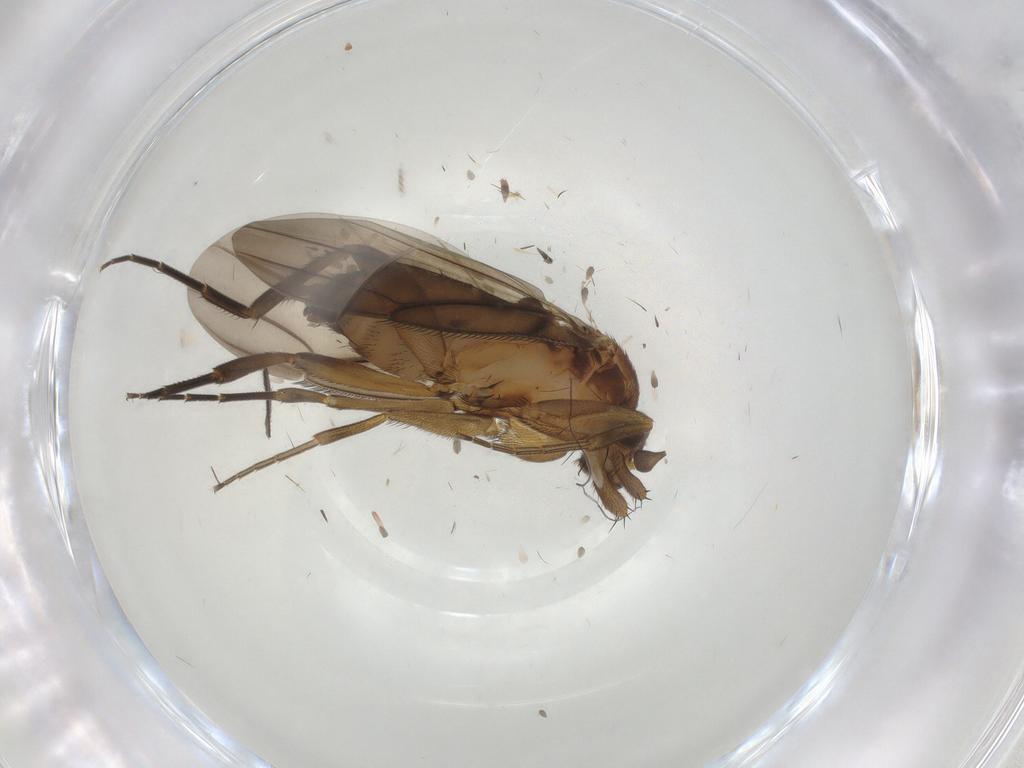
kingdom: Animalia
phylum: Arthropoda
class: Insecta
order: Diptera
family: Phoridae
